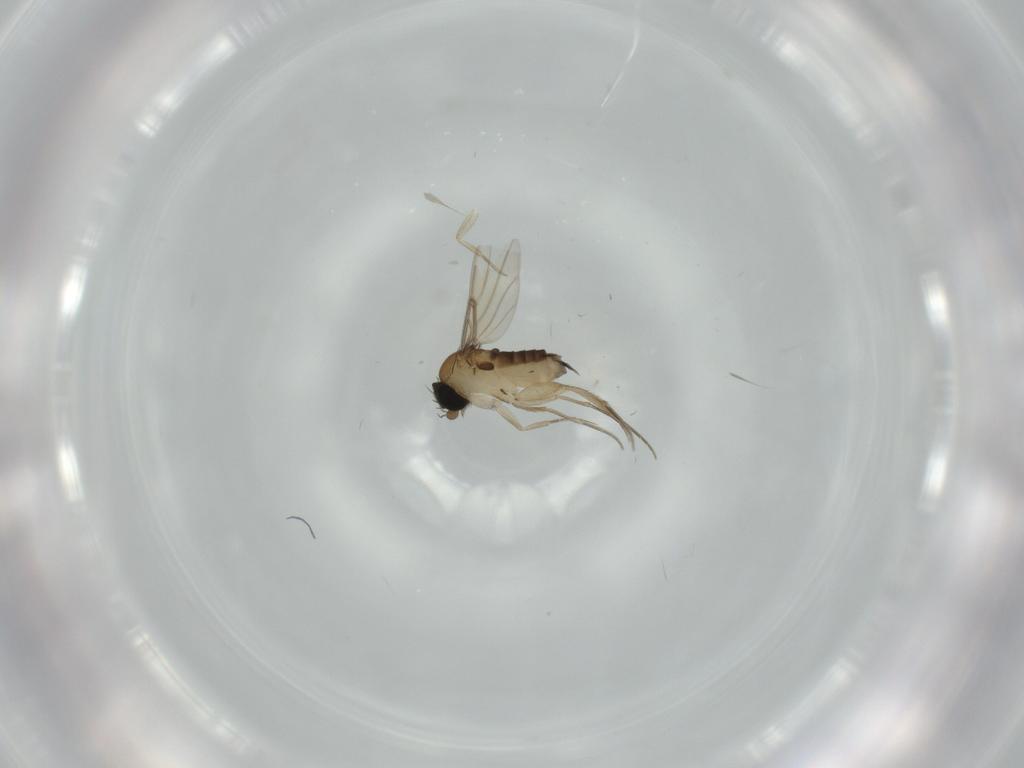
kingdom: Animalia
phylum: Arthropoda
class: Insecta
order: Diptera
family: Phoridae
